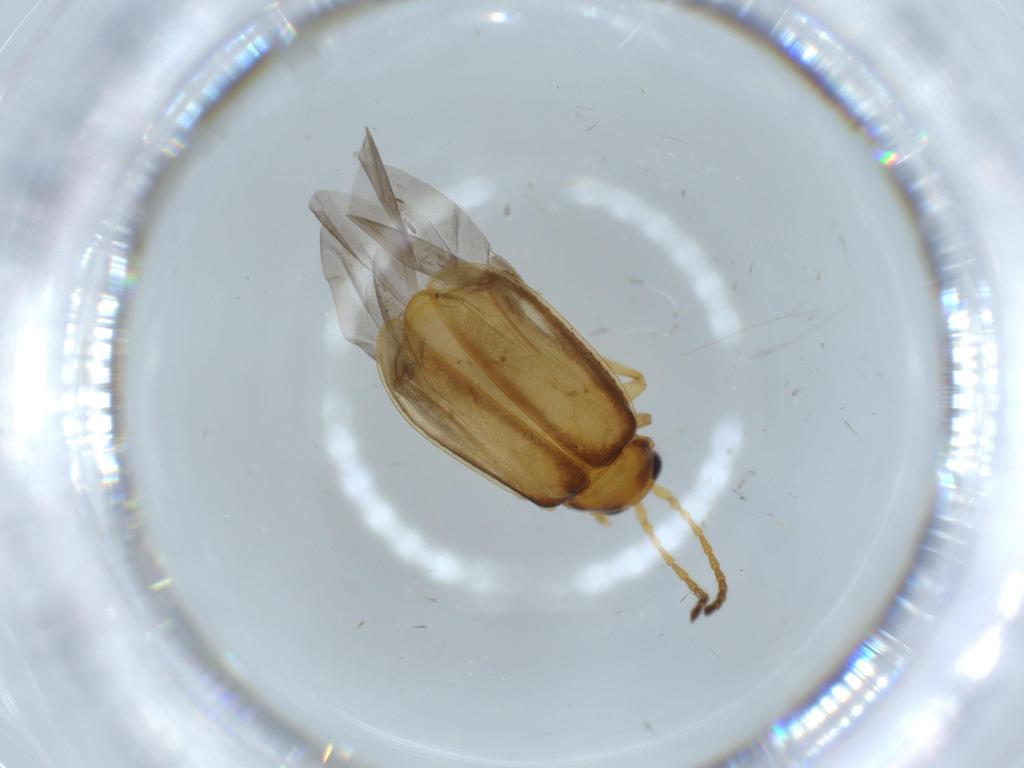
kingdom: Animalia
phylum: Arthropoda
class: Insecta
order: Coleoptera
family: Chrysomelidae
